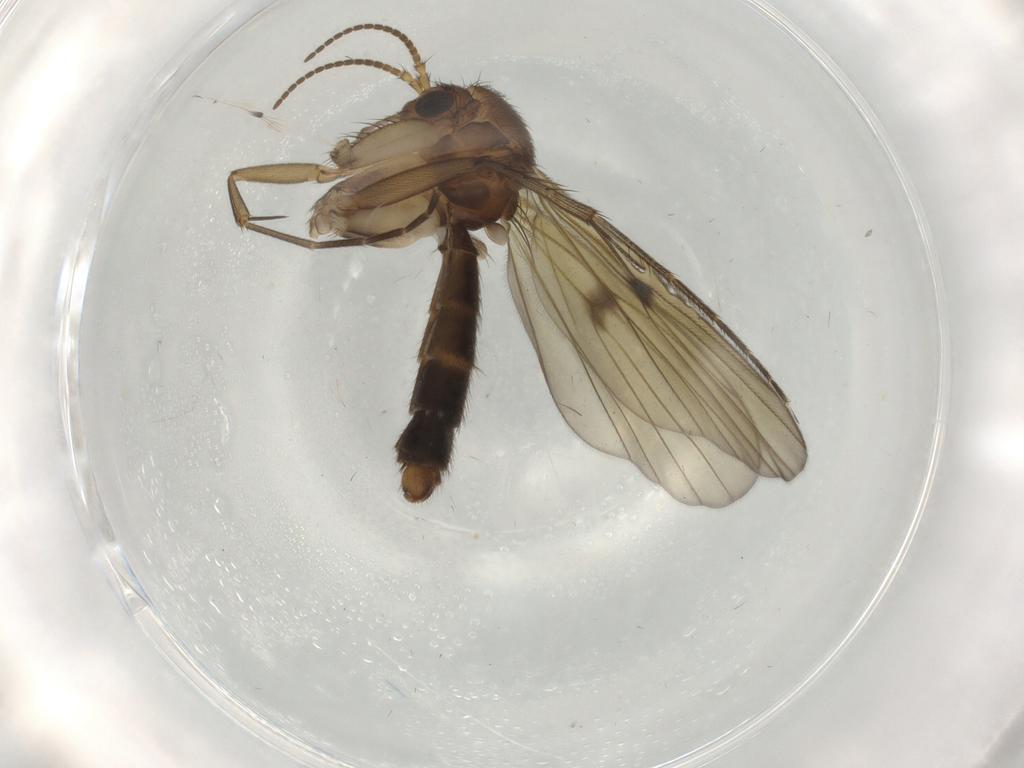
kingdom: Animalia
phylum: Arthropoda
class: Insecta
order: Diptera
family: Mycetophilidae
